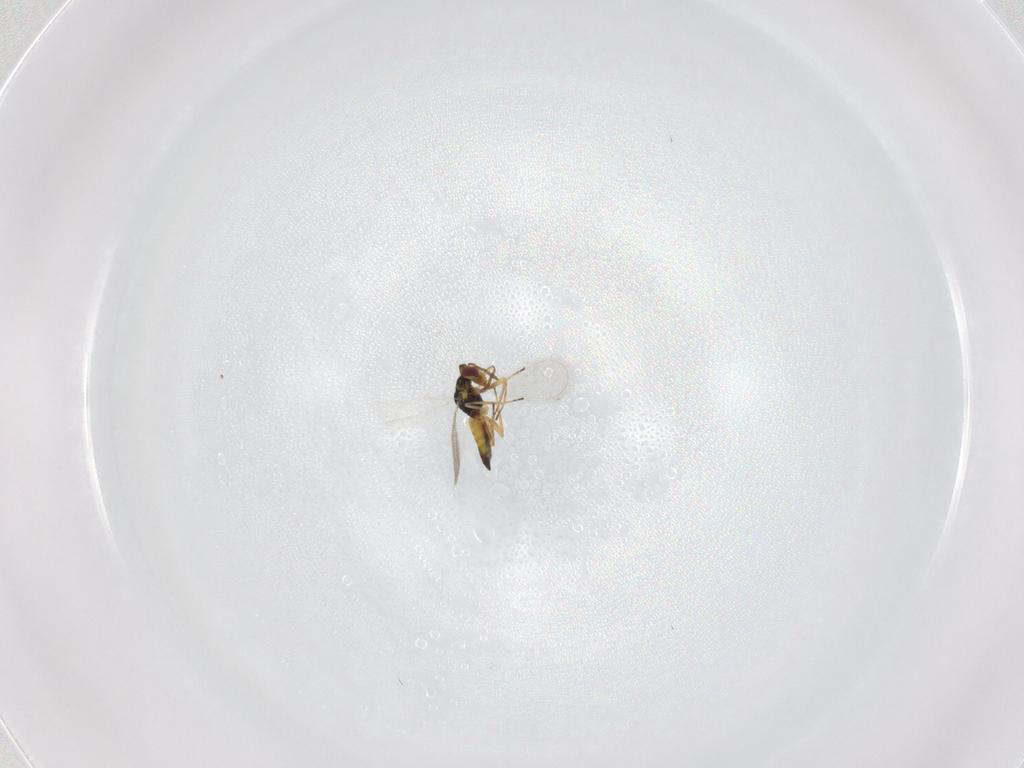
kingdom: Animalia
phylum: Arthropoda
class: Insecta
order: Hymenoptera
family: Eulophidae
